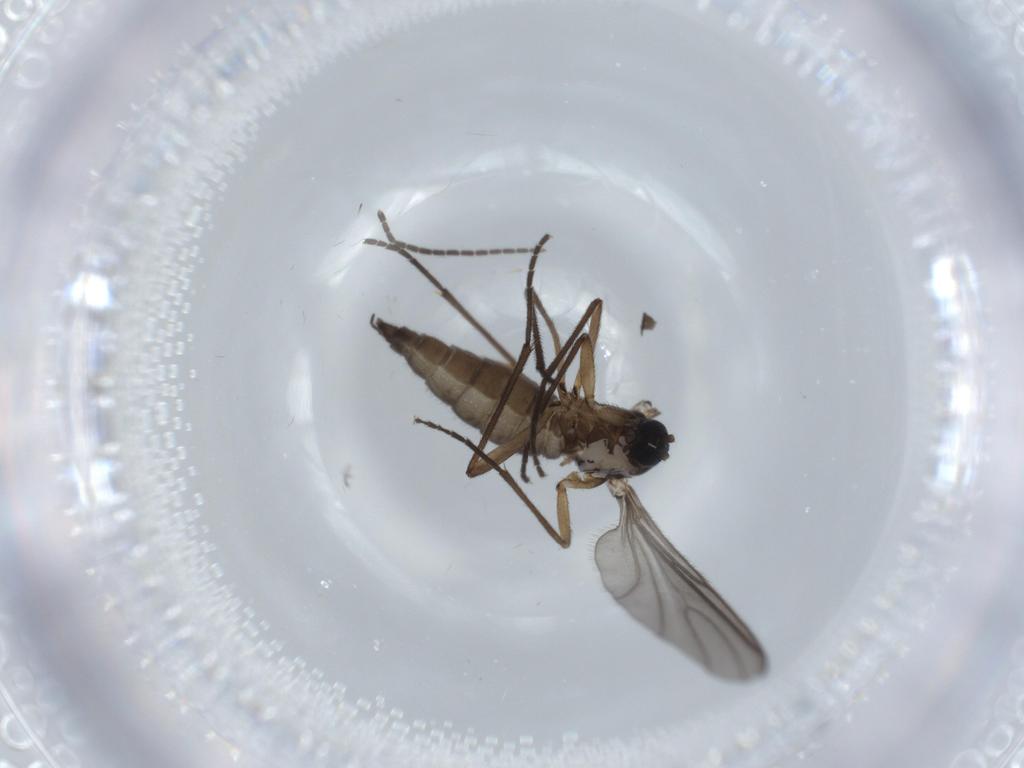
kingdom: Animalia
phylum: Arthropoda
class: Insecta
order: Diptera
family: Sciaridae
